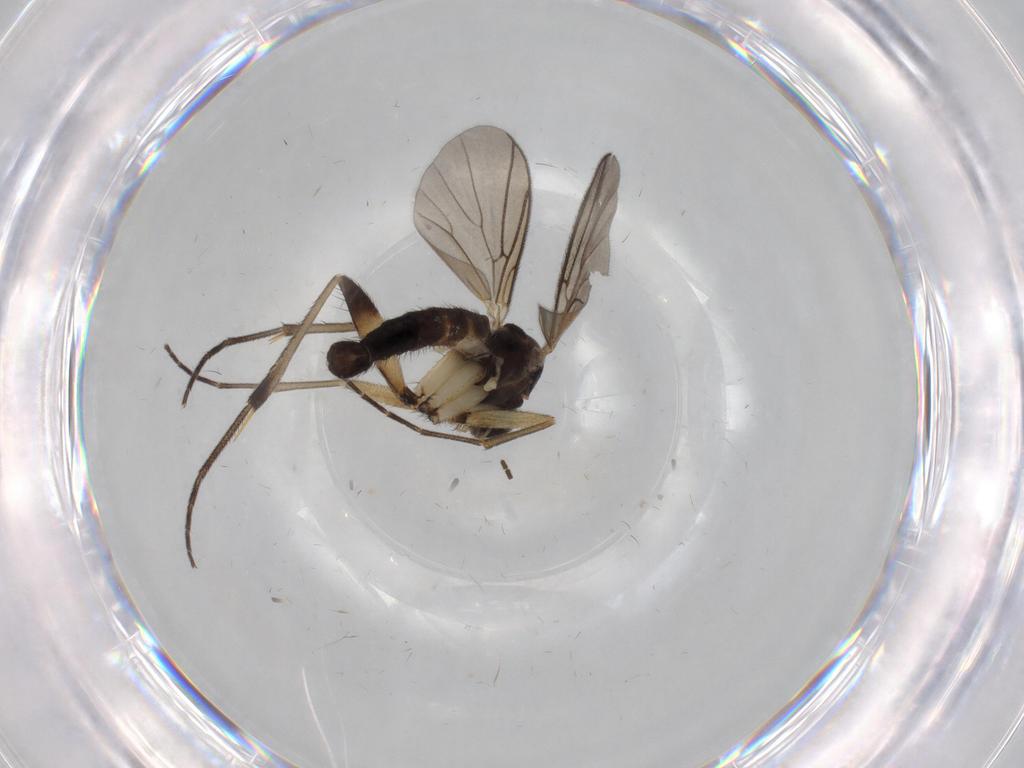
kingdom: Animalia
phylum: Arthropoda
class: Insecta
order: Diptera
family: Mycetophilidae
